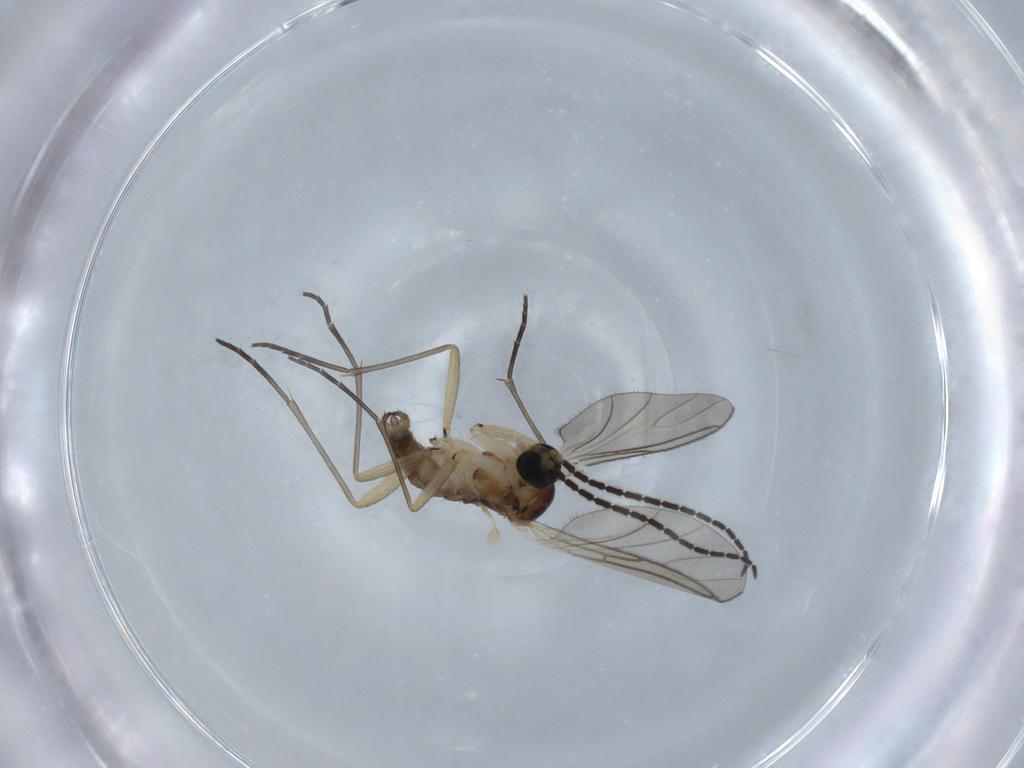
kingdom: Animalia
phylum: Arthropoda
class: Insecta
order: Diptera
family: Sciaridae
